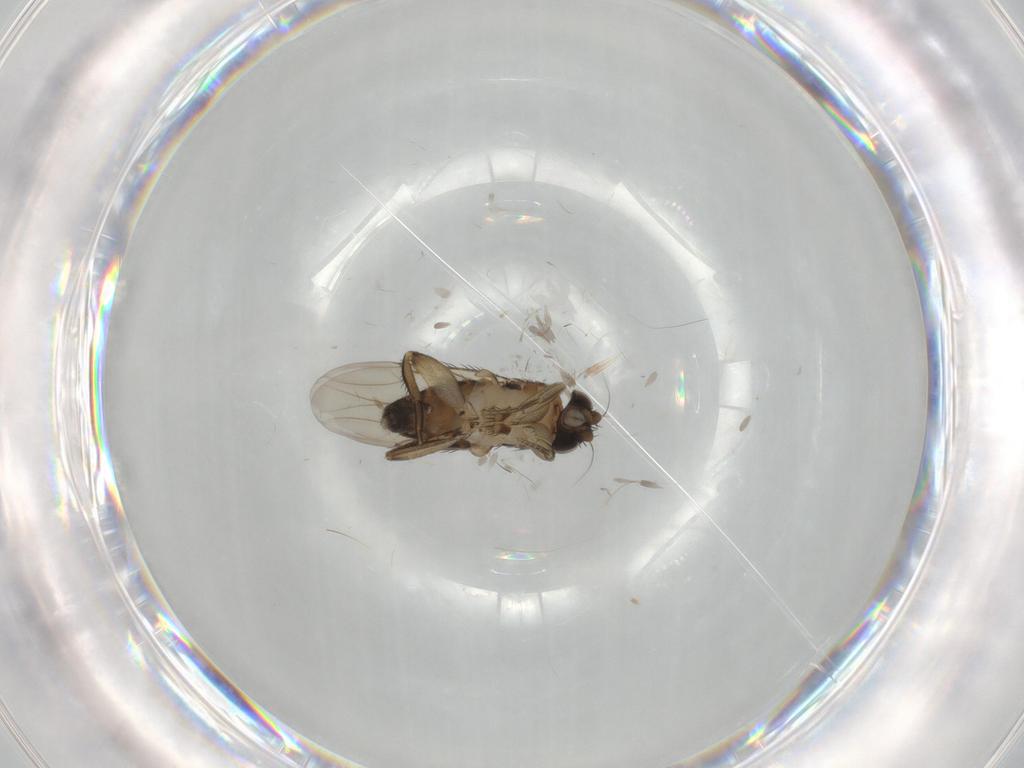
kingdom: Animalia
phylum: Arthropoda
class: Insecta
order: Diptera
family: Phoridae
